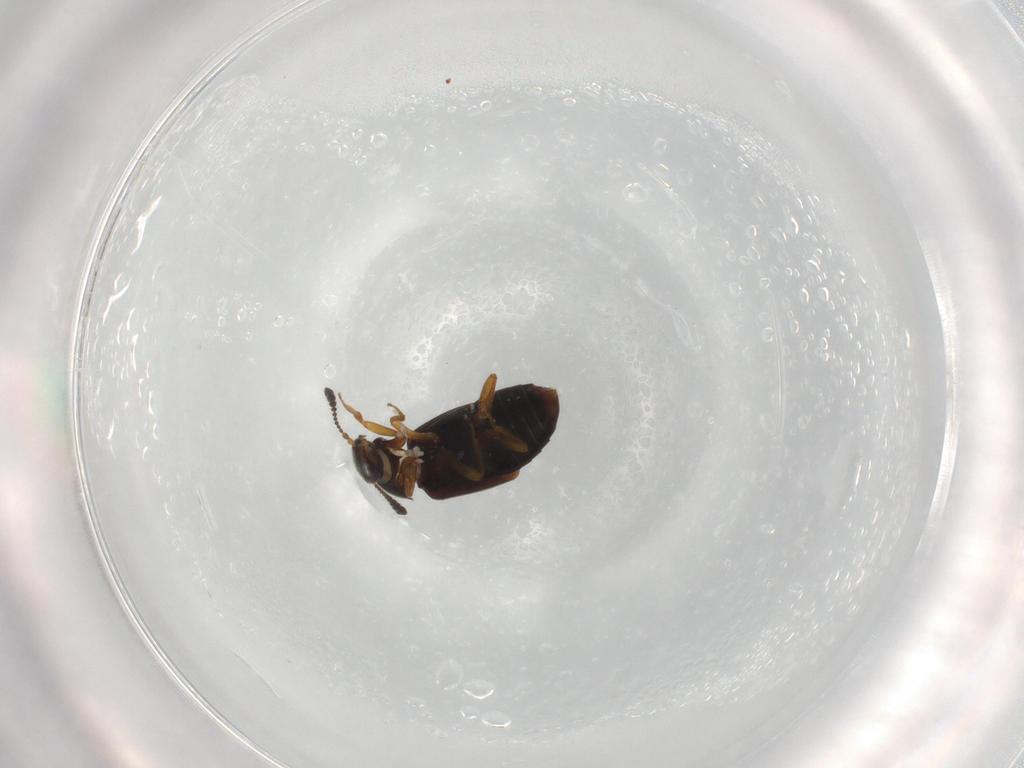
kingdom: Animalia
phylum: Arthropoda
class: Insecta
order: Coleoptera
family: Staphylinidae
